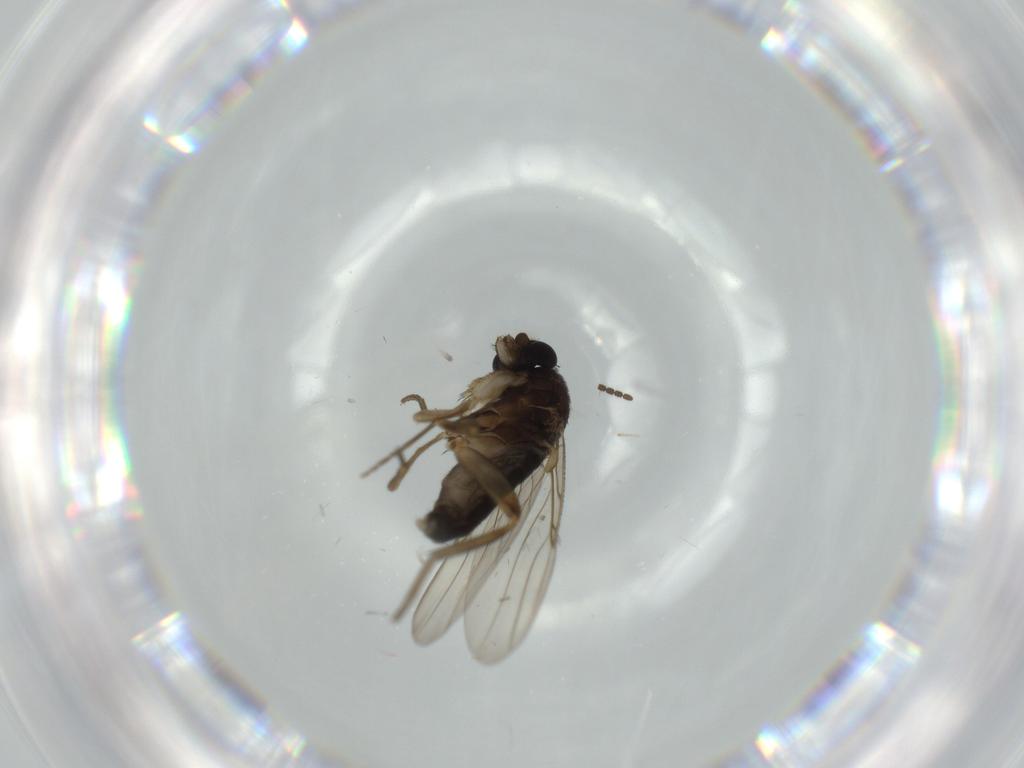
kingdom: Animalia
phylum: Arthropoda
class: Insecta
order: Diptera
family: Phoridae
